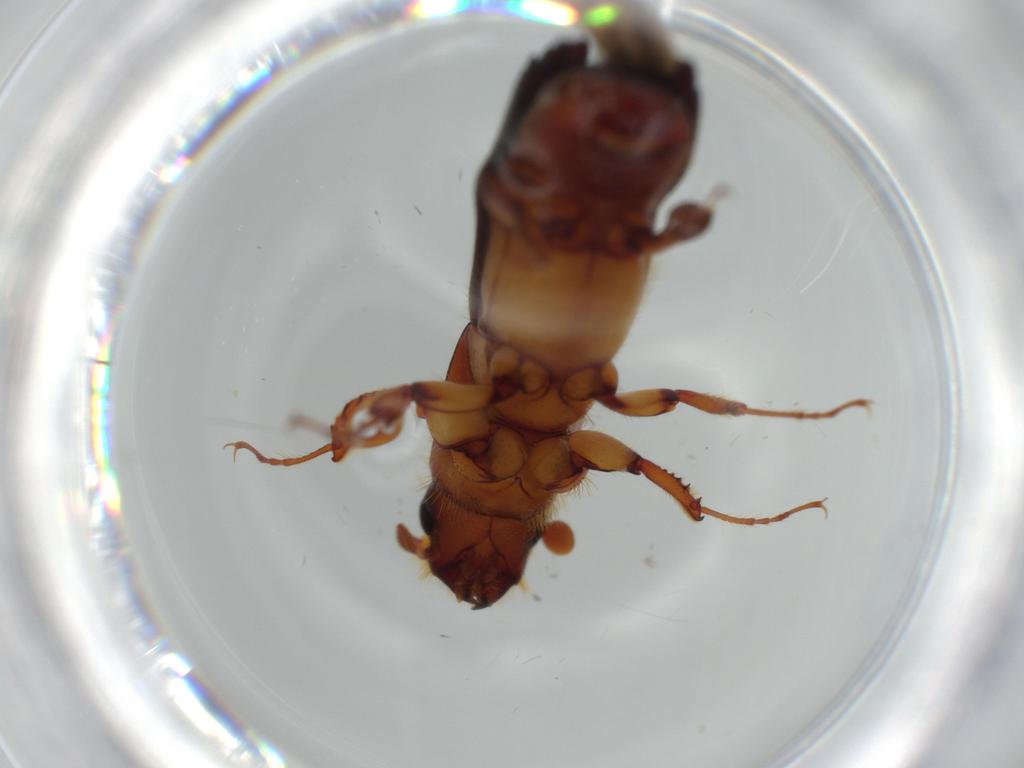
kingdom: Animalia
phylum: Arthropoda
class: Insecta
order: Coleoptera
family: Curculionidae
